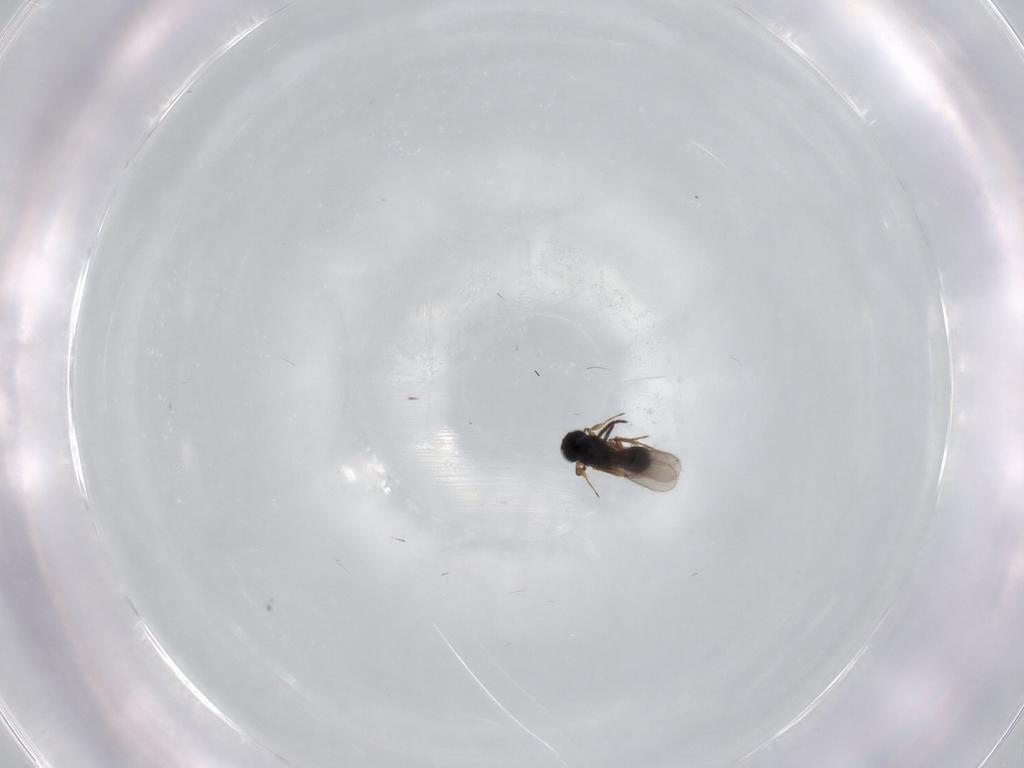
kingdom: Animalia
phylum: Arthropoda
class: Insecta
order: Hymenoptera
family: Scelionidae
